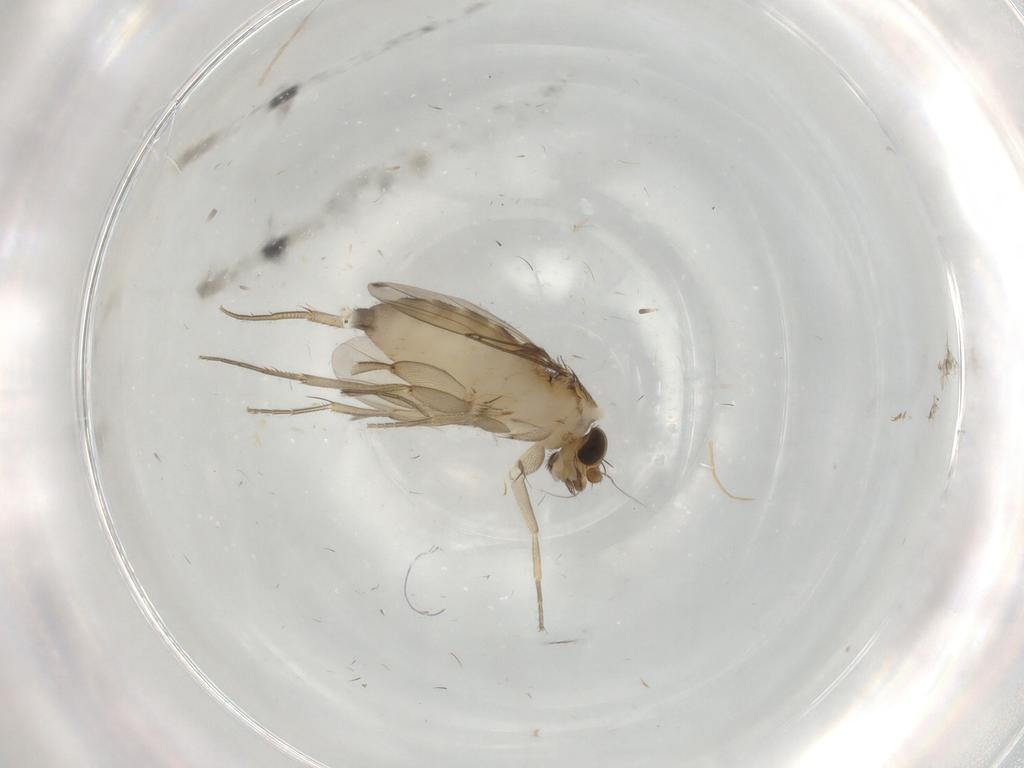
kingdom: Animalia
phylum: Arthropoda
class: Insecta
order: Diptera
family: Phoridae
